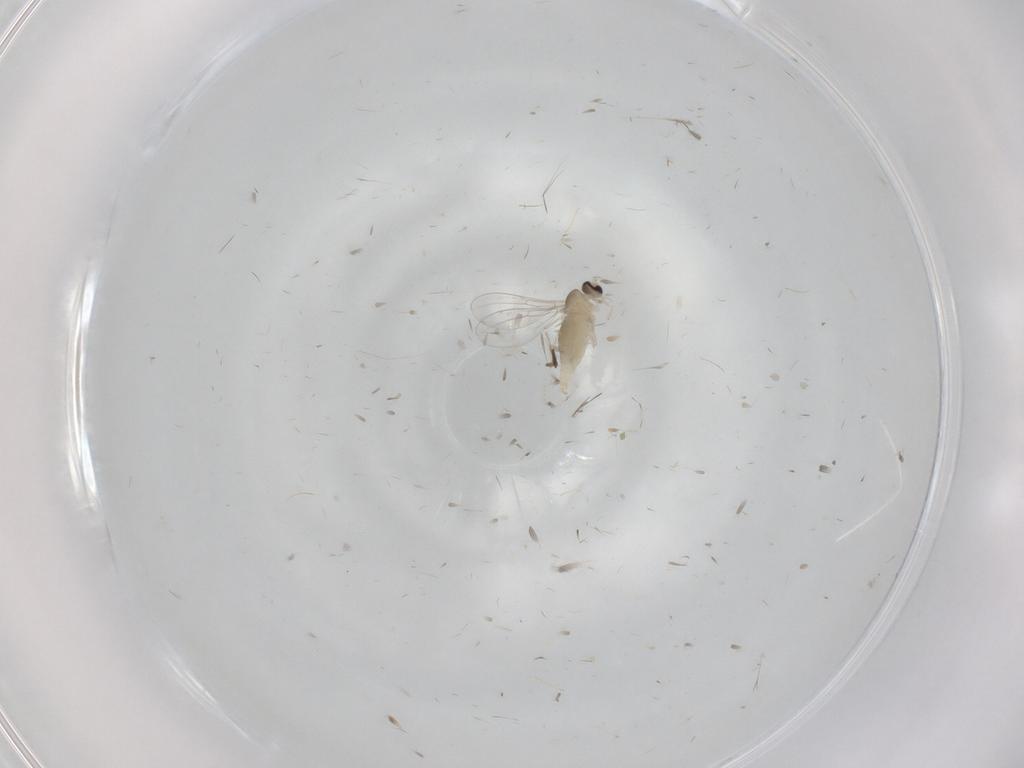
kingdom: Animalia
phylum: Arthropoda
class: Insecta
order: Diptera
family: Cecidomyiidae
